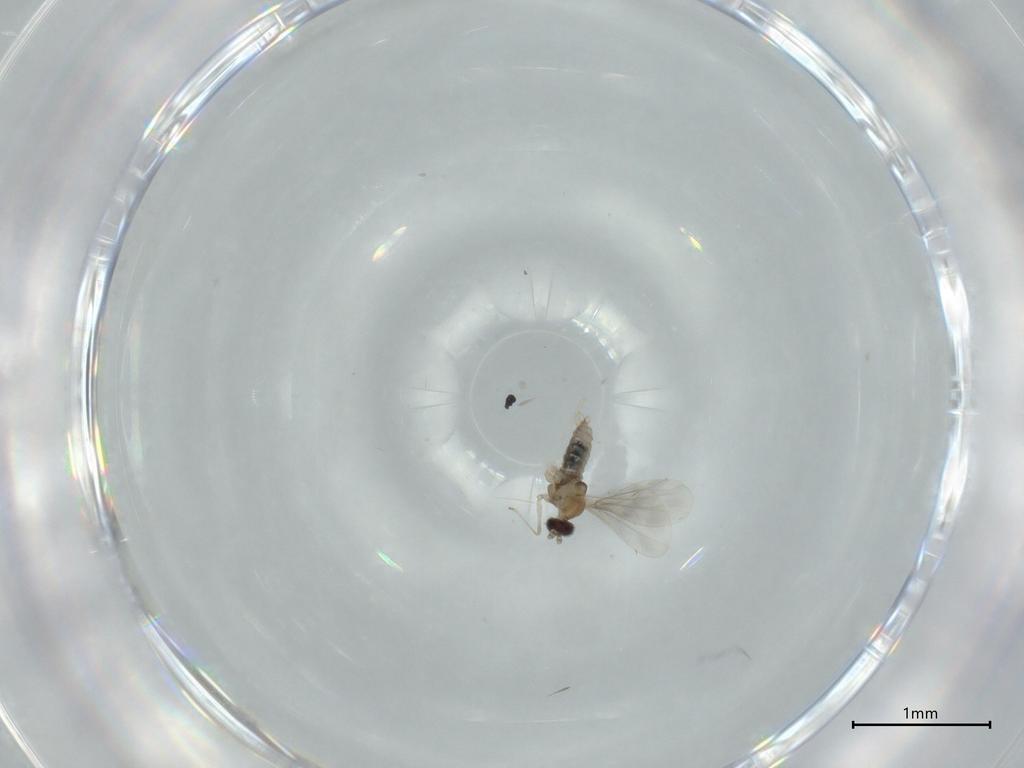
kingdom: Animalia
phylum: Arthropoda
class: Insecta
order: Diptera
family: Cecidomyiidae
